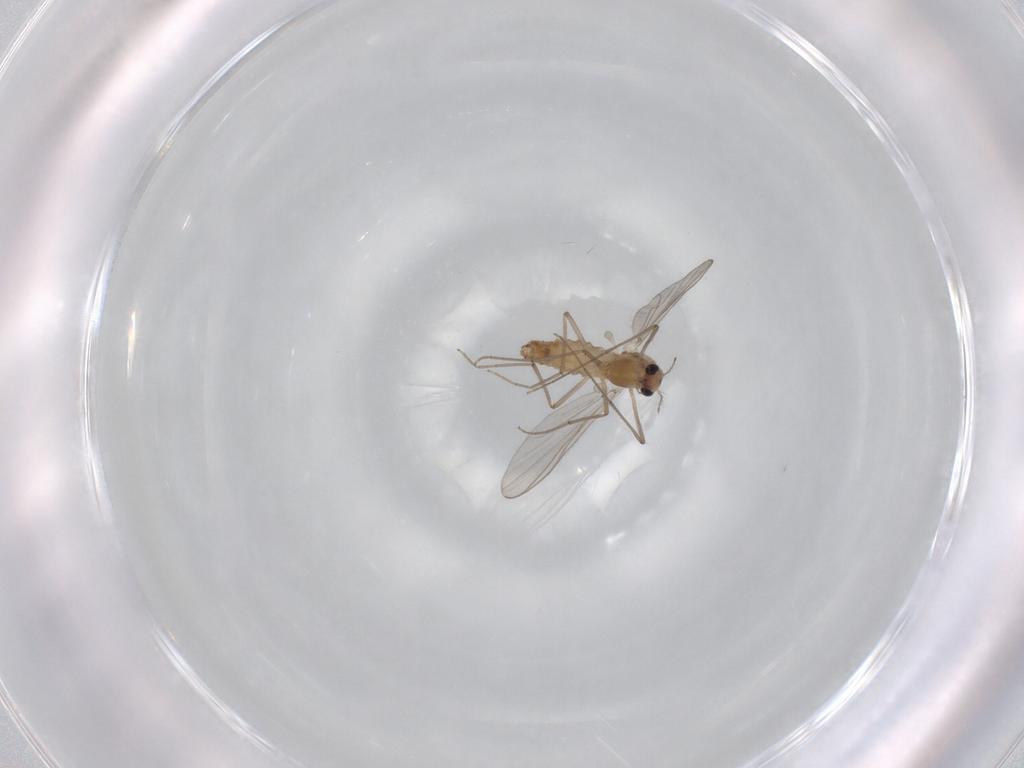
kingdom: Animalia
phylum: Arthropoda
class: Insecta
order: Diptera
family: Chironomidae
